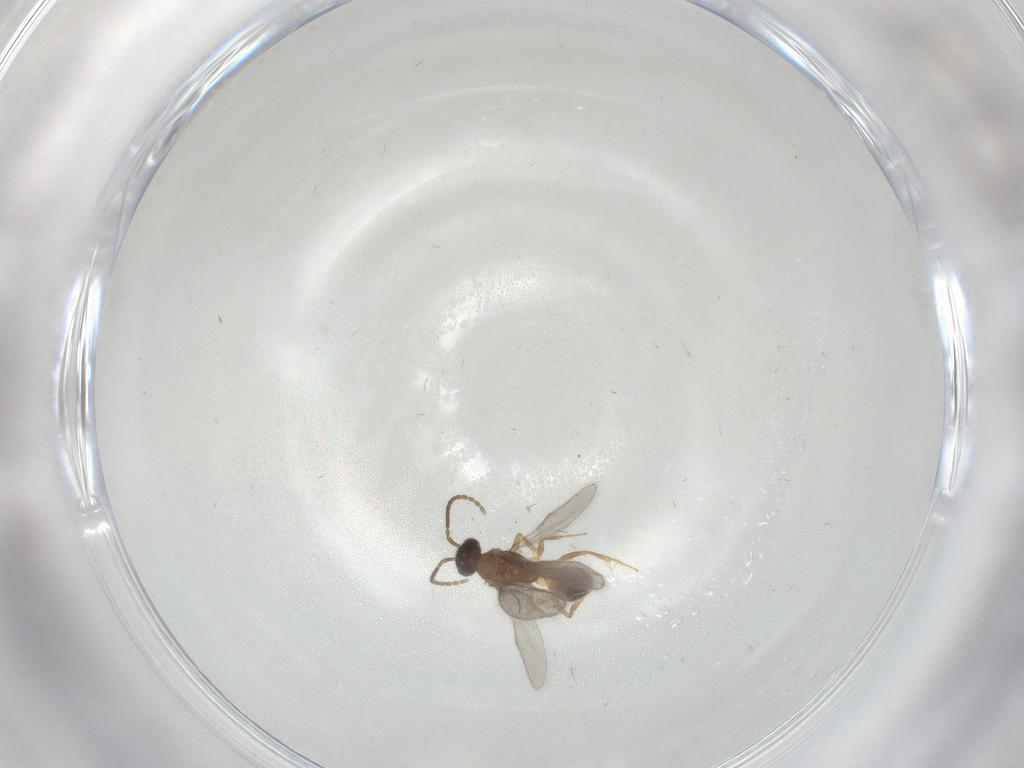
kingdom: Animalia
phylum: Arthropoda
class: Insecta
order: Hymenoptera
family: Bethylidae
